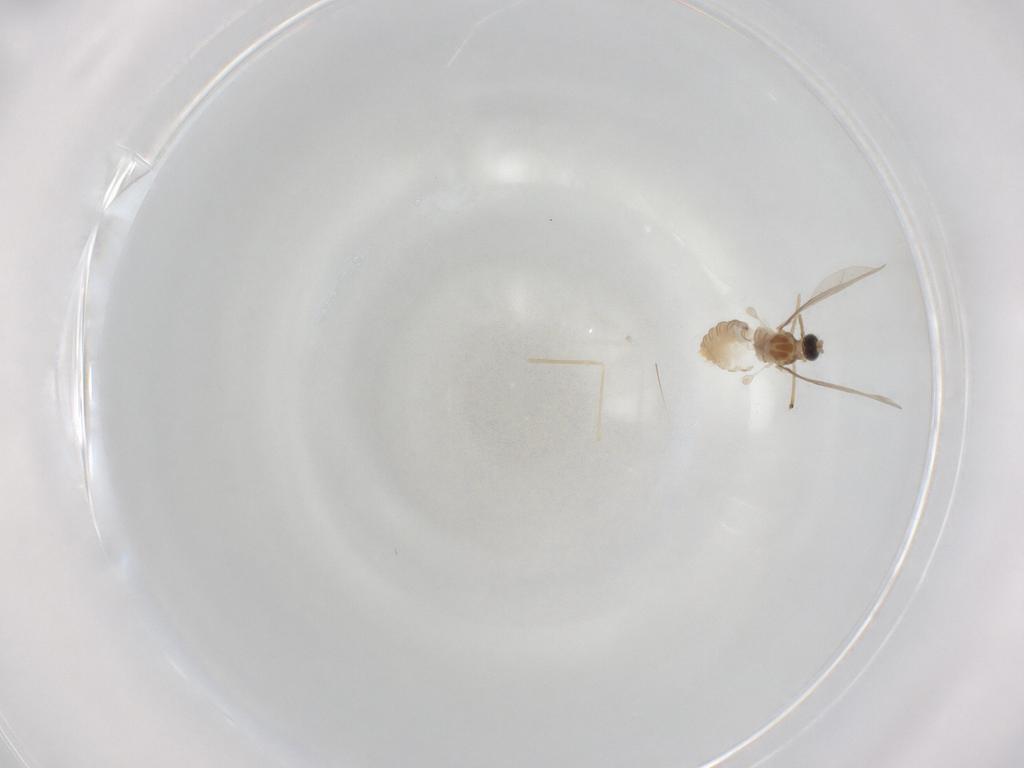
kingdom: Animalia
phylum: Arthropoda
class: Insecta
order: Diptera
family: Cecidomyiidae
